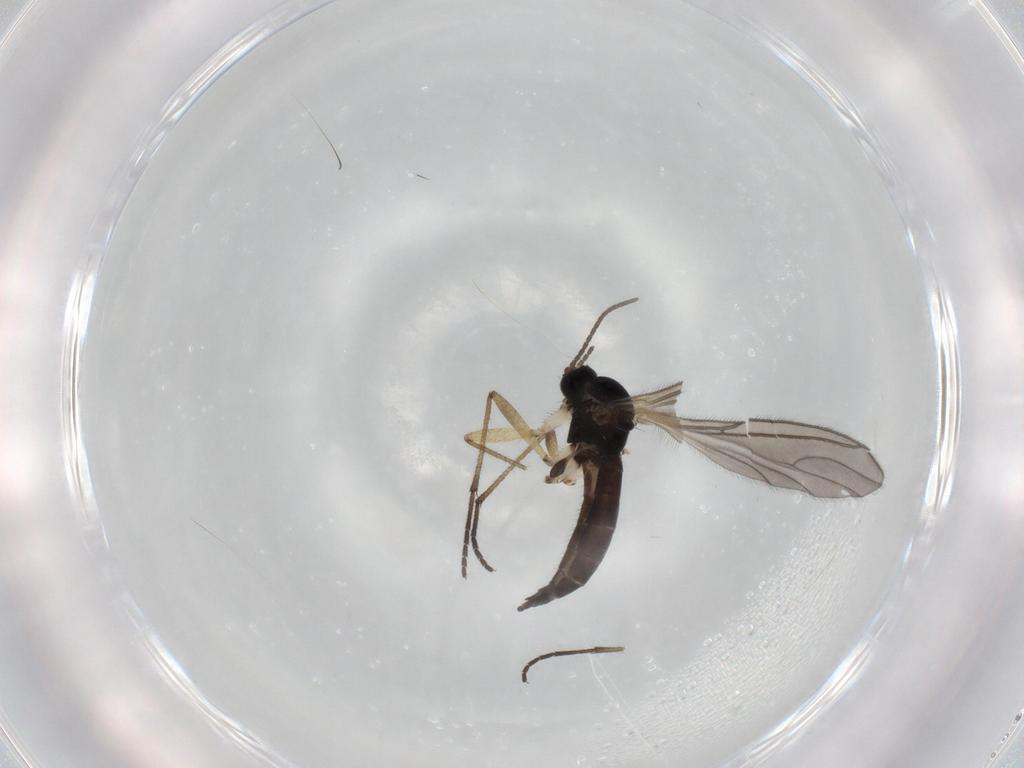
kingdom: Animalia
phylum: Arthropoda
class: Insecta
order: Diptera
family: Sciaridae
